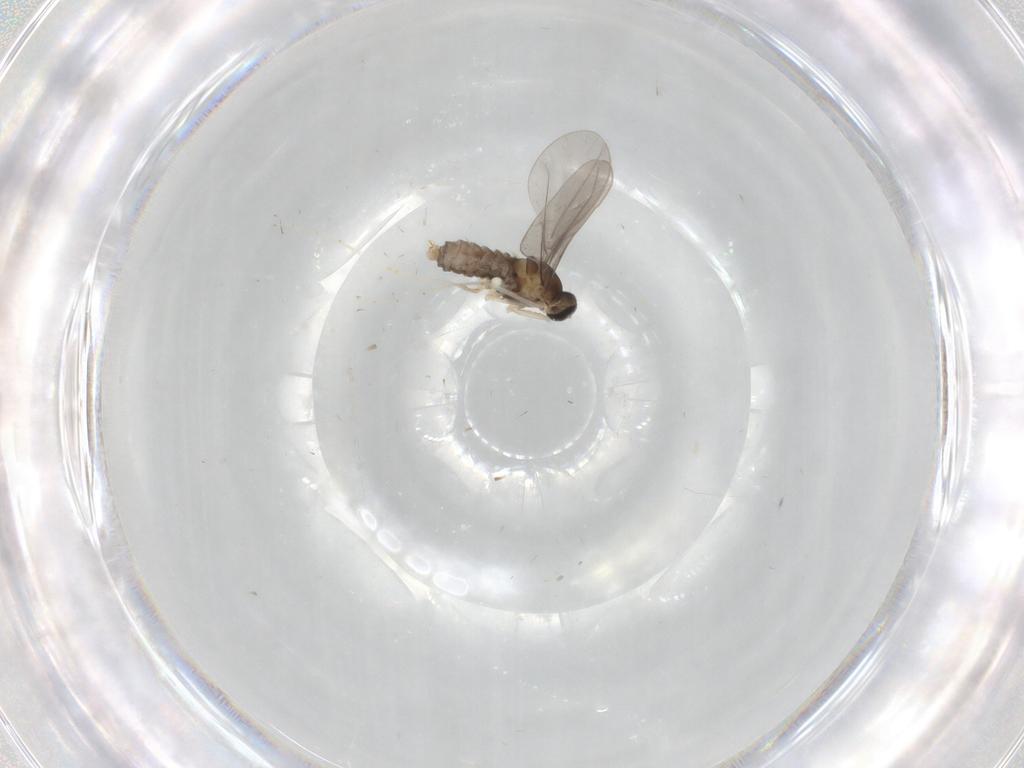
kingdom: Animalia
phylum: Arthropoda
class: Insecta
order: Diptera
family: Cecidomyiidae
